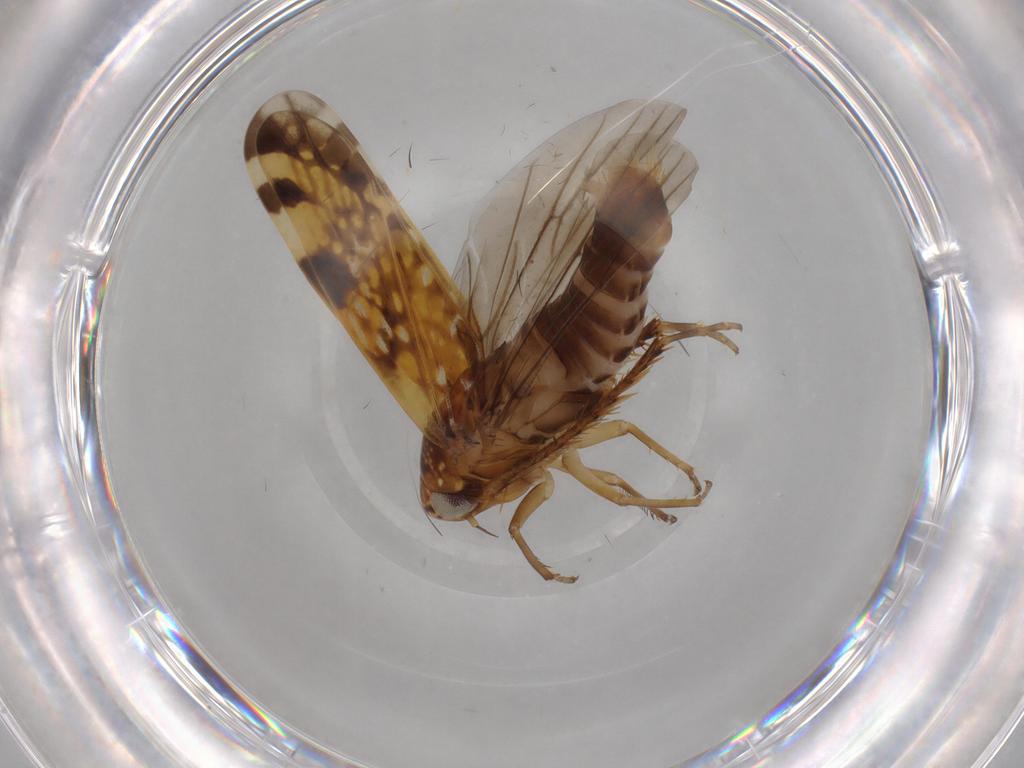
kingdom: Animalia
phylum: Arthropoda
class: Insecta
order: Hemiptera
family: Cicadellidae
